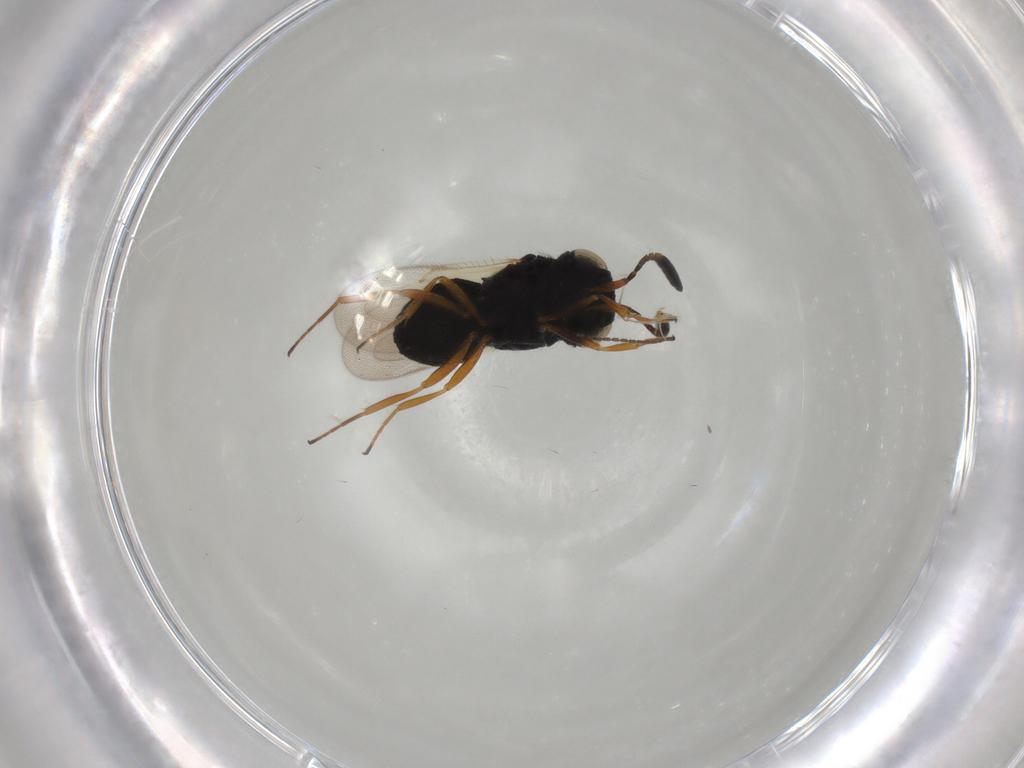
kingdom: Animalia
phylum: Arthropoda
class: Insecta
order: Hymenoptera
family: Scelionidae
